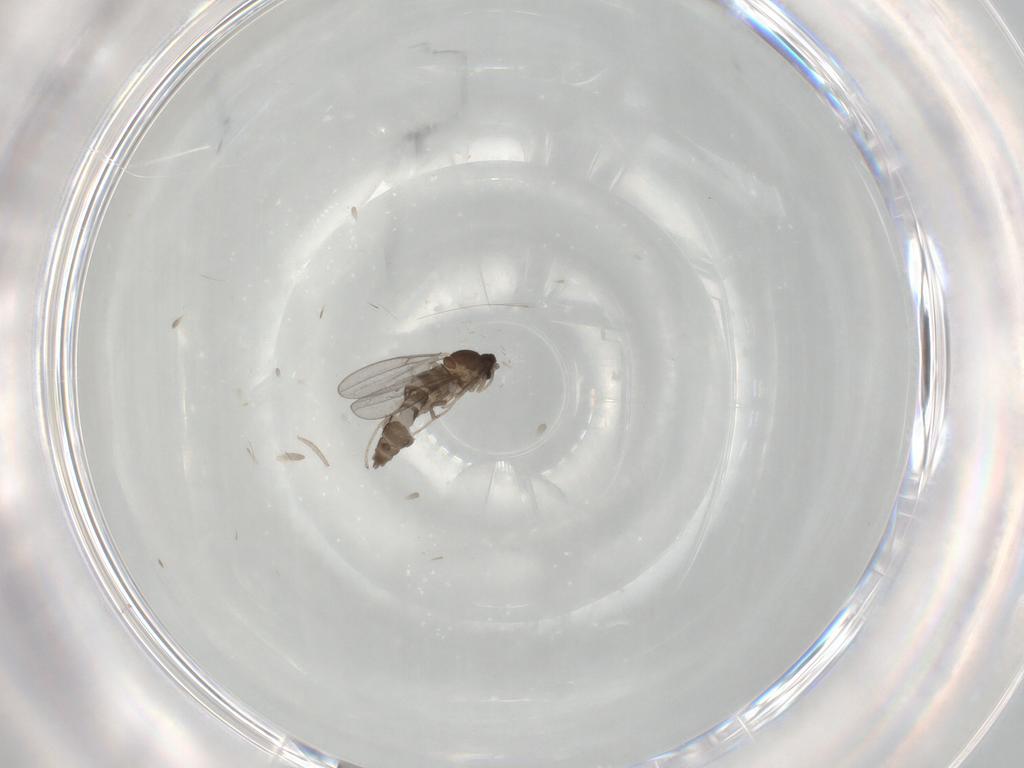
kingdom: Animalia
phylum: Arthropoda
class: Insecta
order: Diptera
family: Cecidomyiidae
